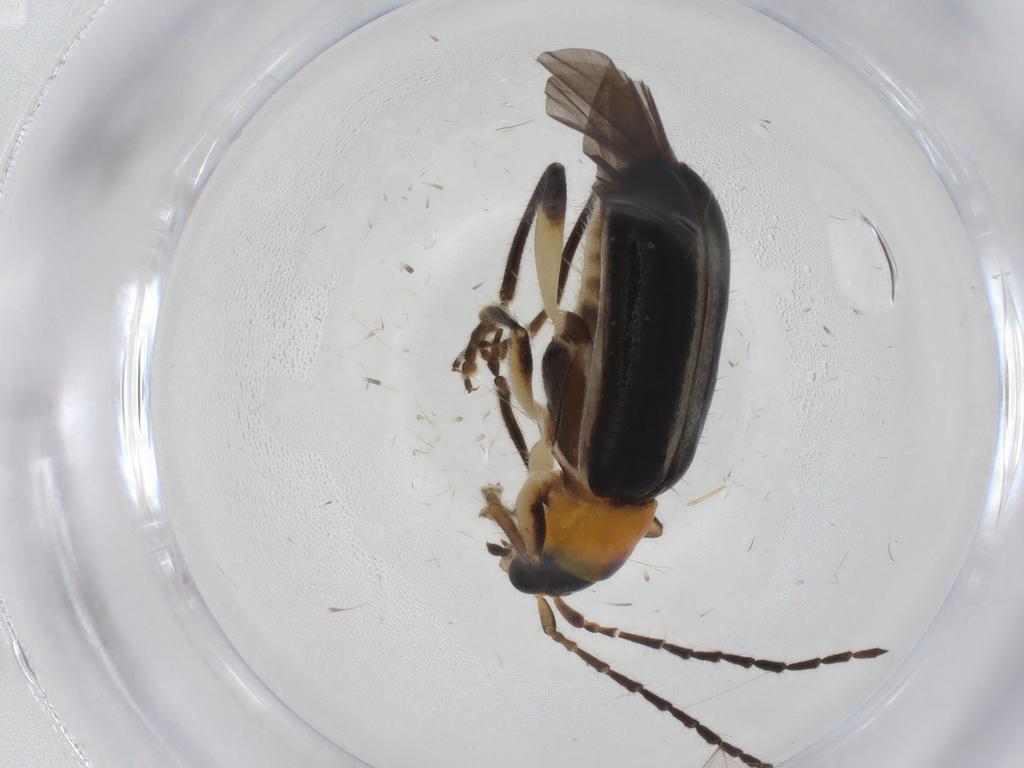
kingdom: Animalia
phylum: Arthropoda
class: Insecta
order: Coleoptera
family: Chrysomelidae
